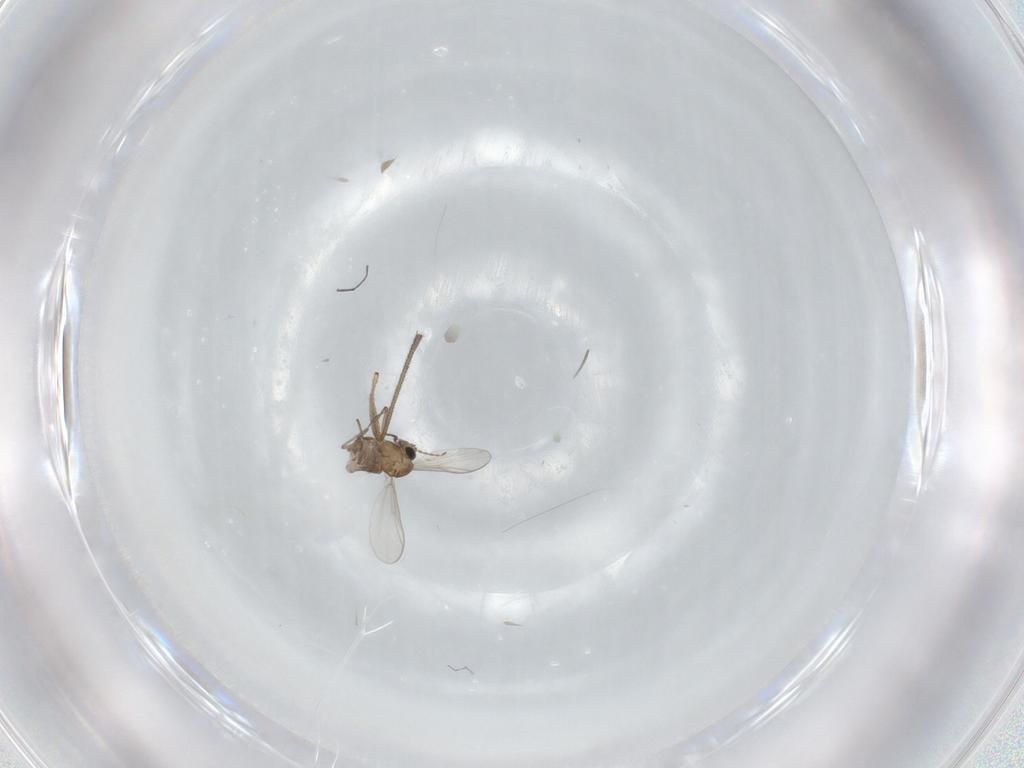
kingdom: Animalia
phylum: Arthropoda
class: Insecta
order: Diptera
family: Chironomidae
